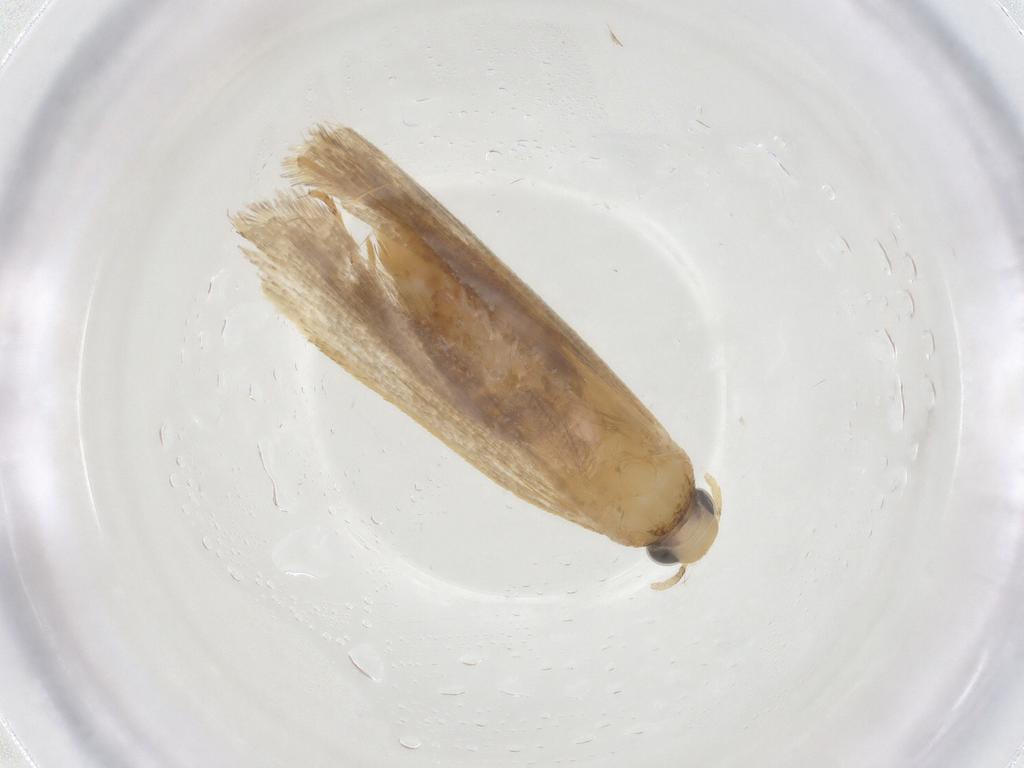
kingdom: Animalia
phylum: Arthropoda
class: Insecta
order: Lepidoptera
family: Gelechiidae
